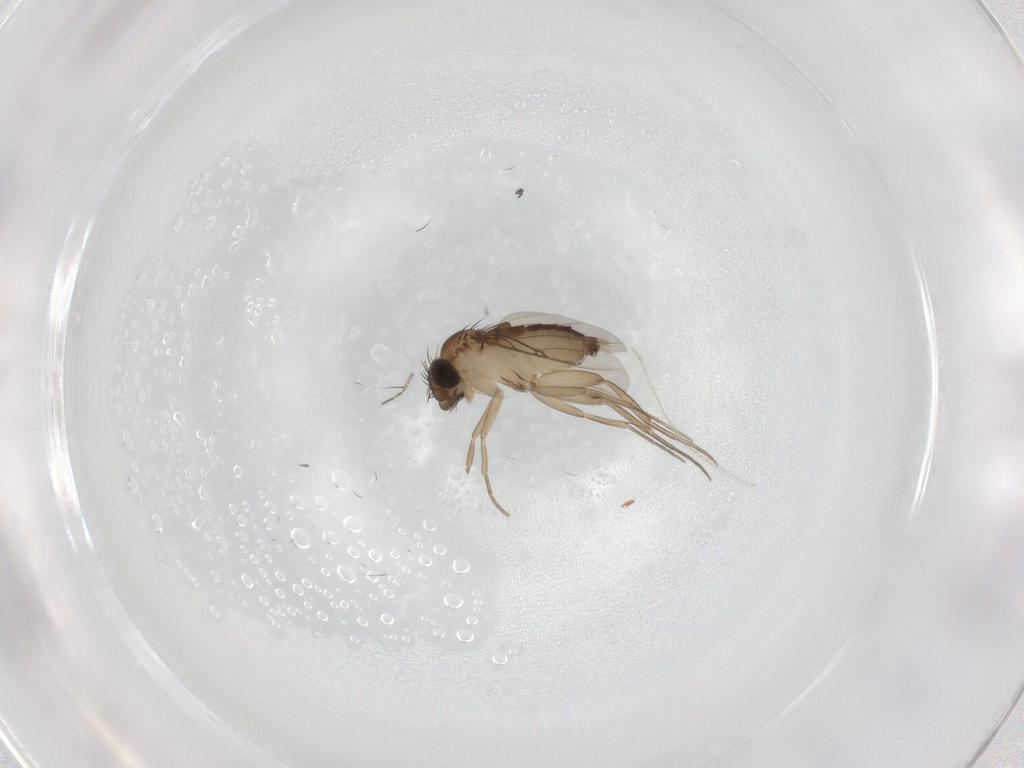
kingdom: Animalia
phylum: Arthropoda
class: Insecta
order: Diptera
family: Phoridae
